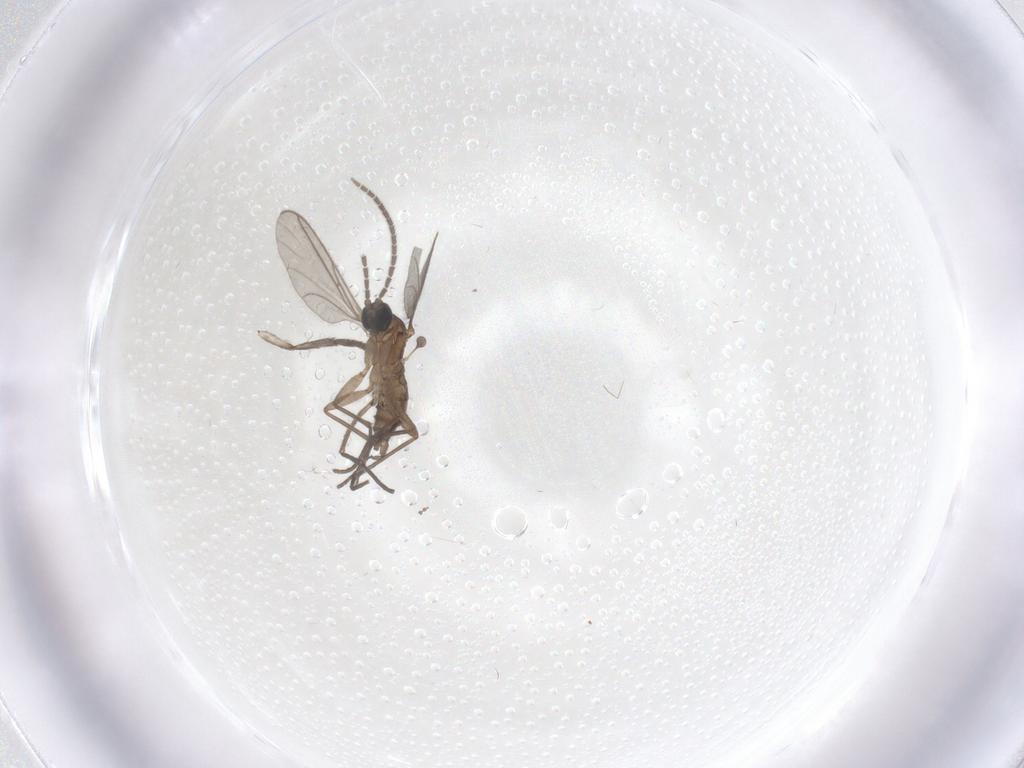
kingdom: Animalia
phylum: Arthropoda
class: Insecta
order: Diptera
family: Sciaridae
